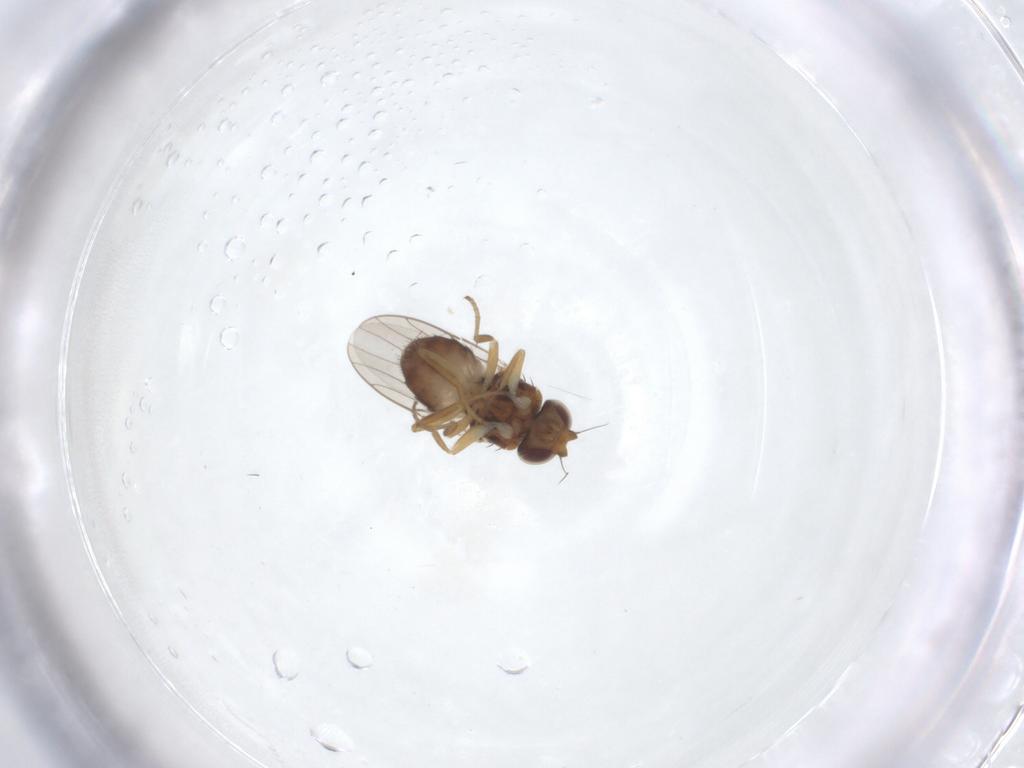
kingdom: Animalia
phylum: Arthropoda
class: Insecta
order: Diptera
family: Chloropidae
